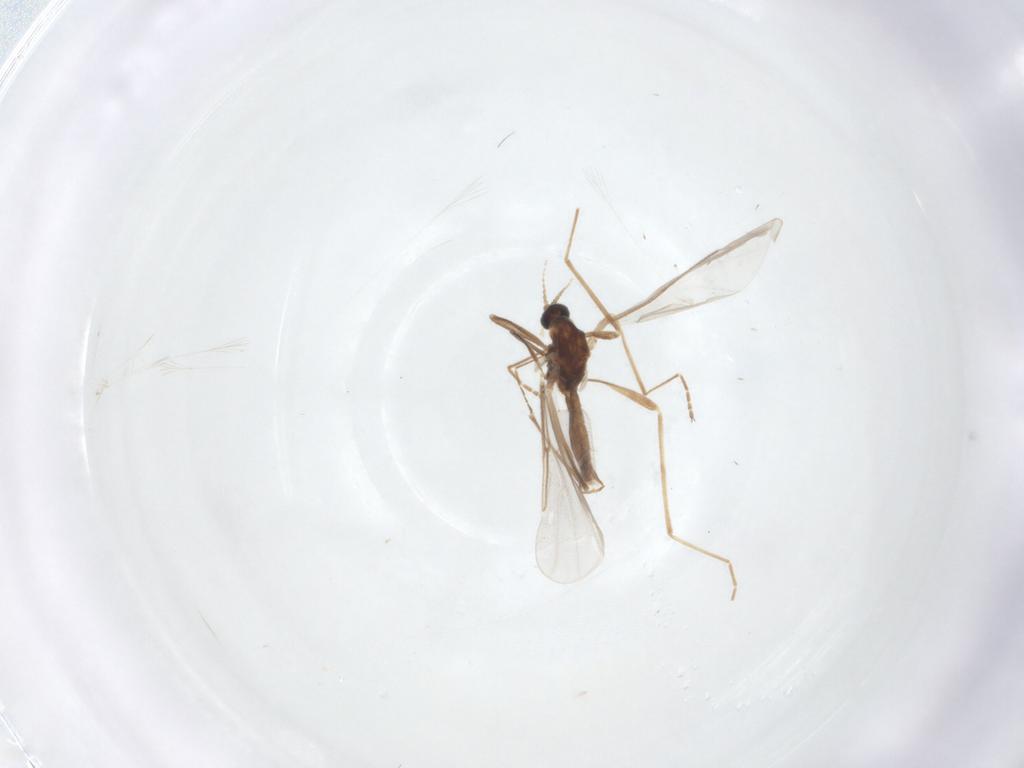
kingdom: Animalia
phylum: Arthropoda
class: Insecta
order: Diptera
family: Cecidomyiidae
